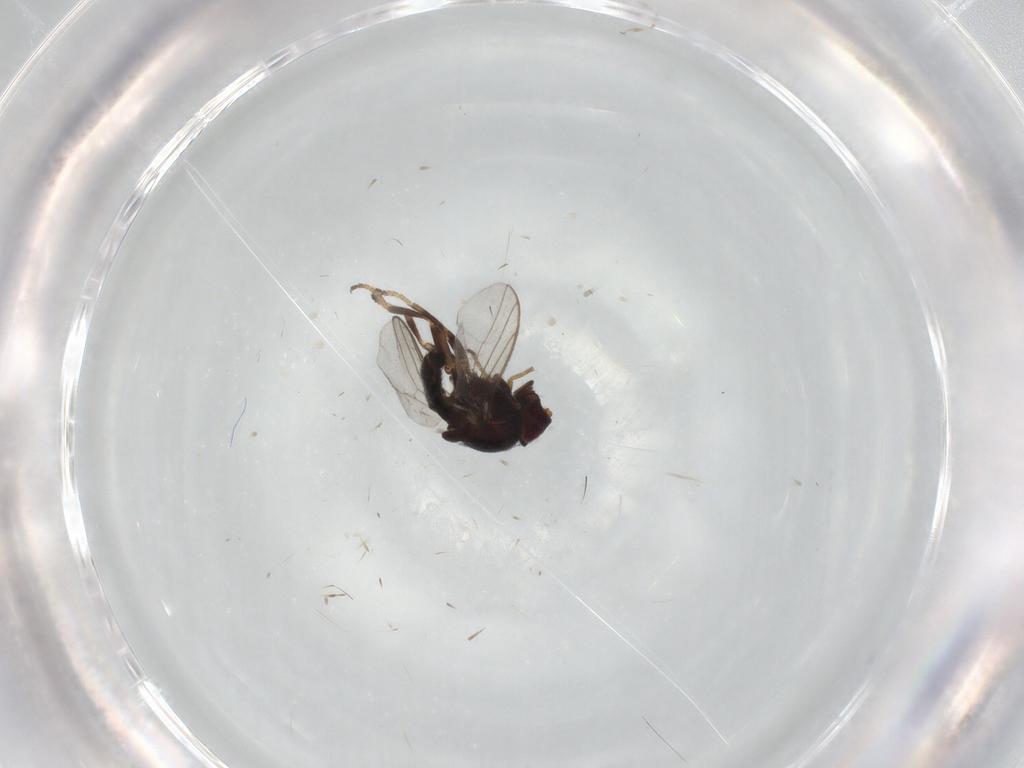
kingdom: Animalia
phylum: Arthropoda
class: Insecta
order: Diptera
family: Chloropidae
